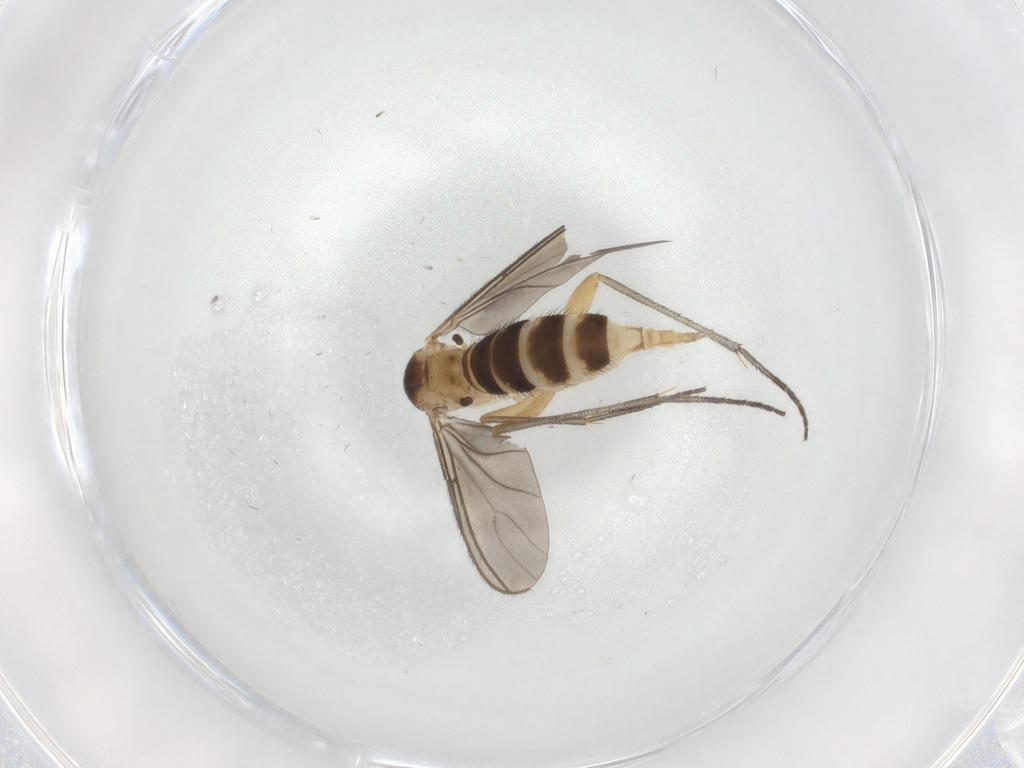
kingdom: Animalia
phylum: Arthropoda
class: Insecta
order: Diptera
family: Sciaridae
